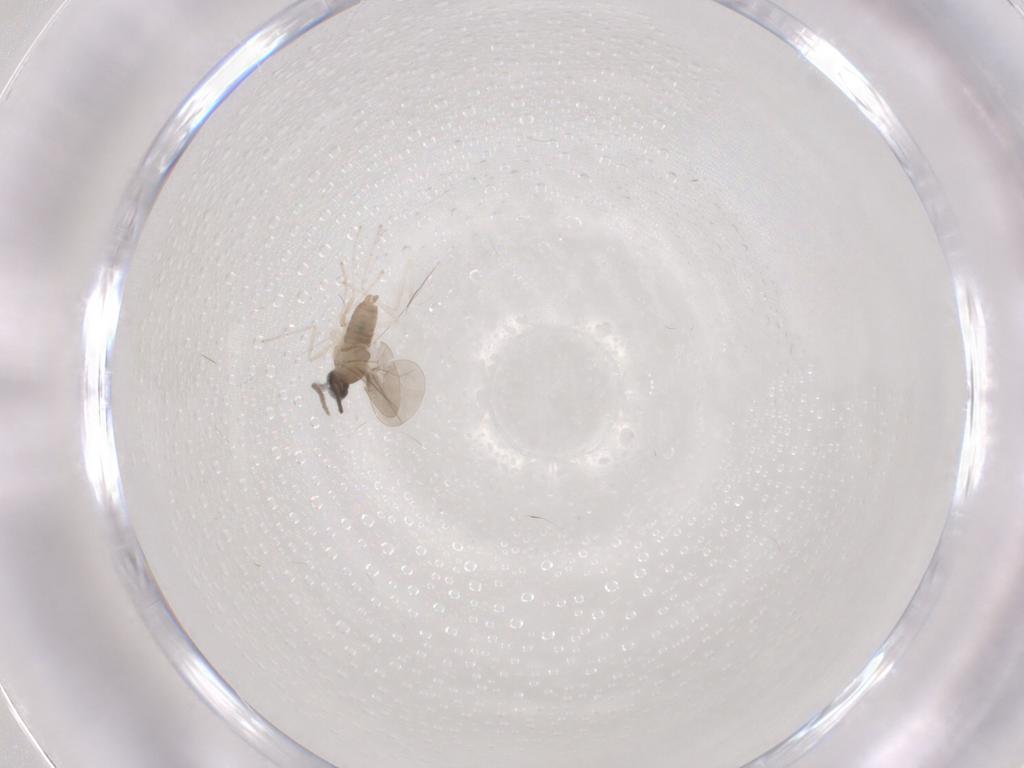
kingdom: Animalia
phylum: Arthropoda
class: Insecta
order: Diptera
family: Cecidomyiidae
